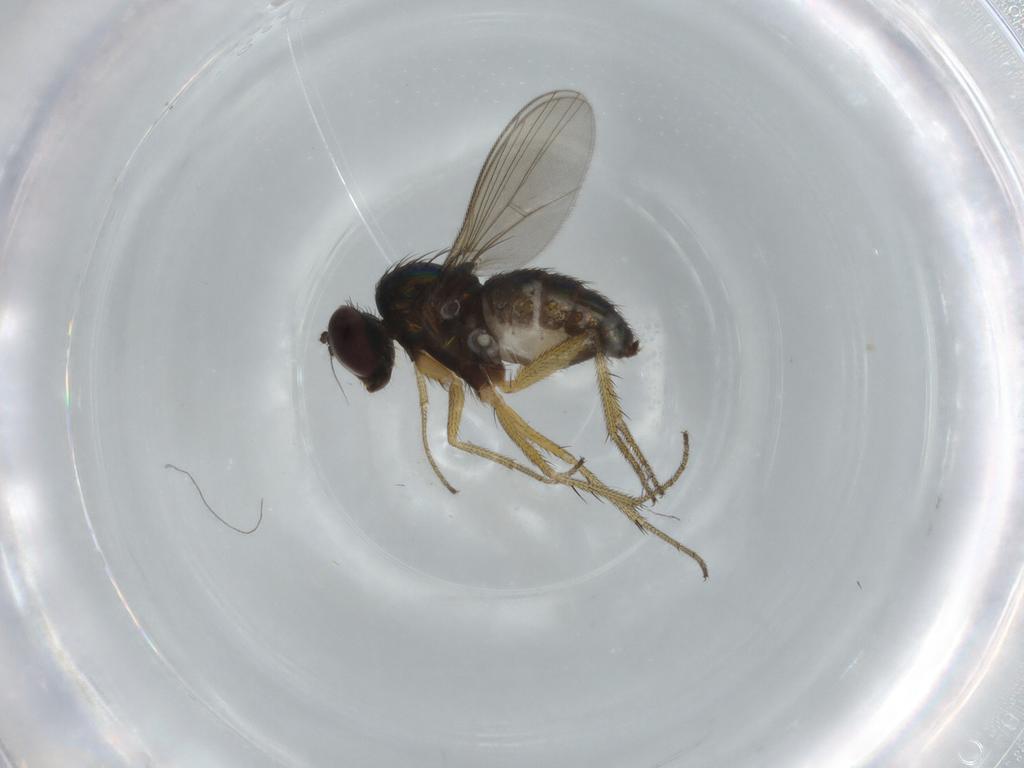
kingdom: Animalia
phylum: Arthropoda
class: Insecta
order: Diptera
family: Dolichopodidae
